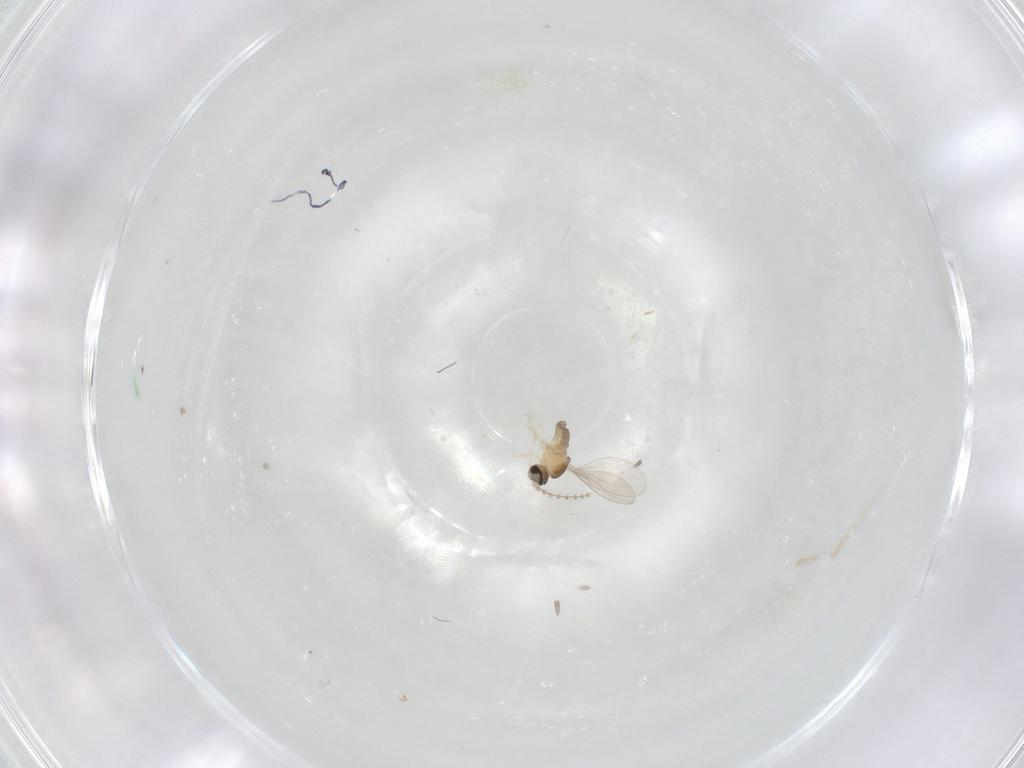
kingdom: Animalia
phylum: Arthropoda
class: Insecta
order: Diptera
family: Cecidomyiidae
